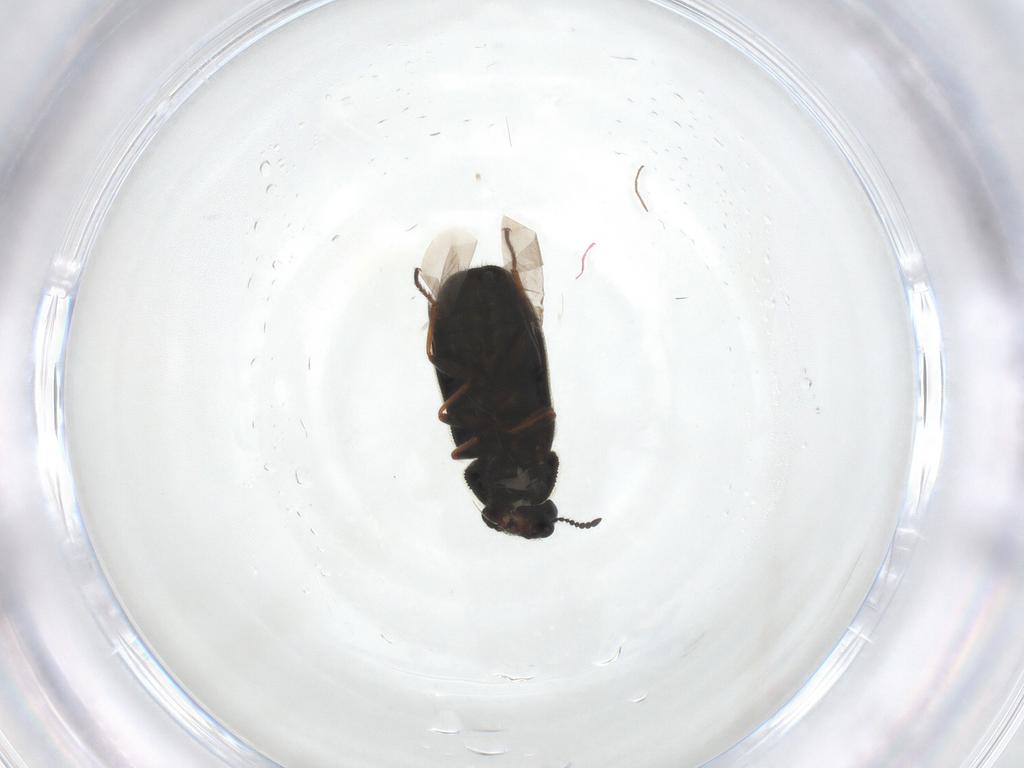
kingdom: Animalia
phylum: Arthropoda
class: Insecta
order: Coleoptera
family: Melyridae
